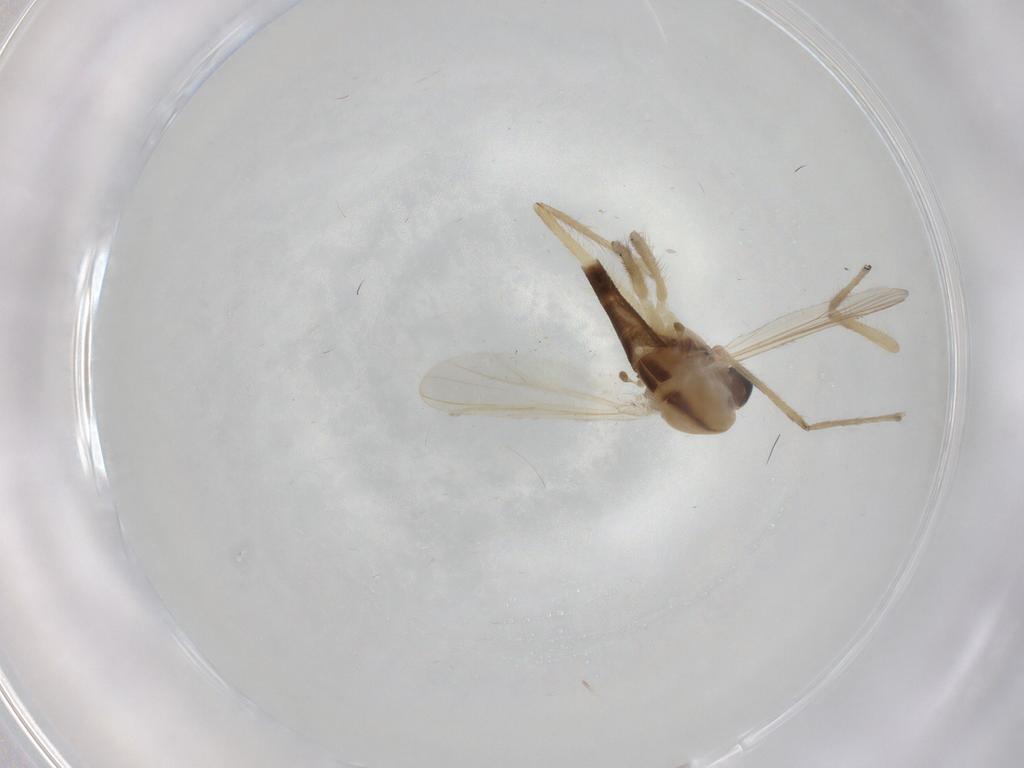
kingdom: Animalia
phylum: Arthropoda
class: Insecta
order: Diptera
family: Chironomidae
